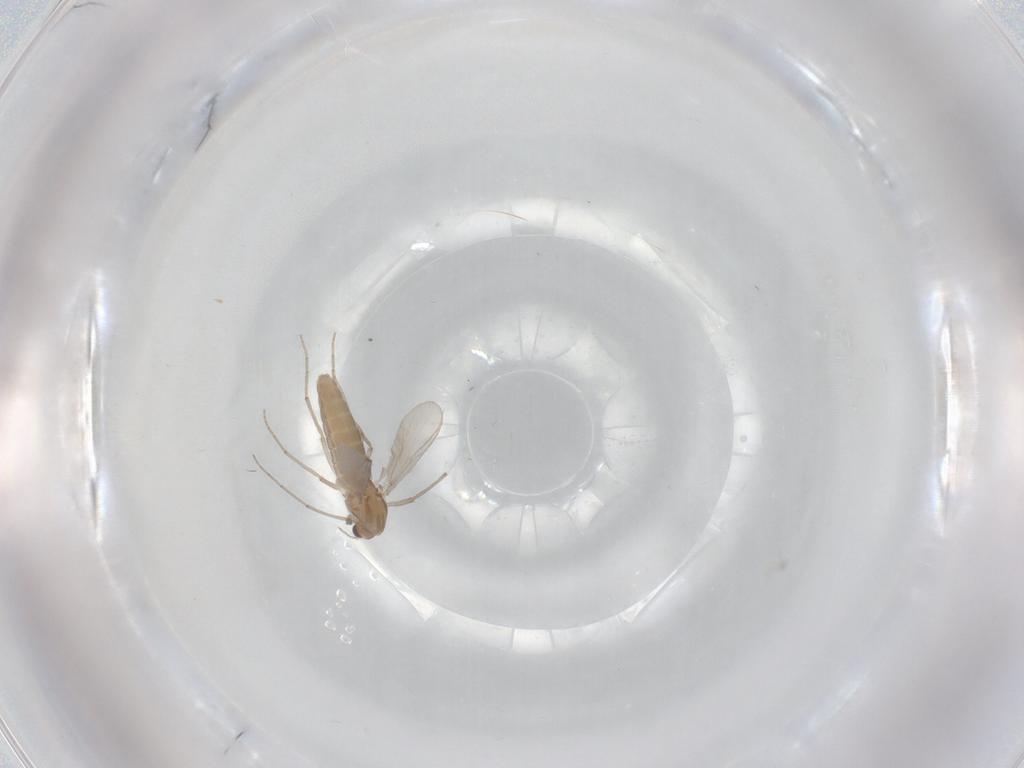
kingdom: Animalia
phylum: Arthropoda
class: Insecta
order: Diptera
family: Chironomidae
